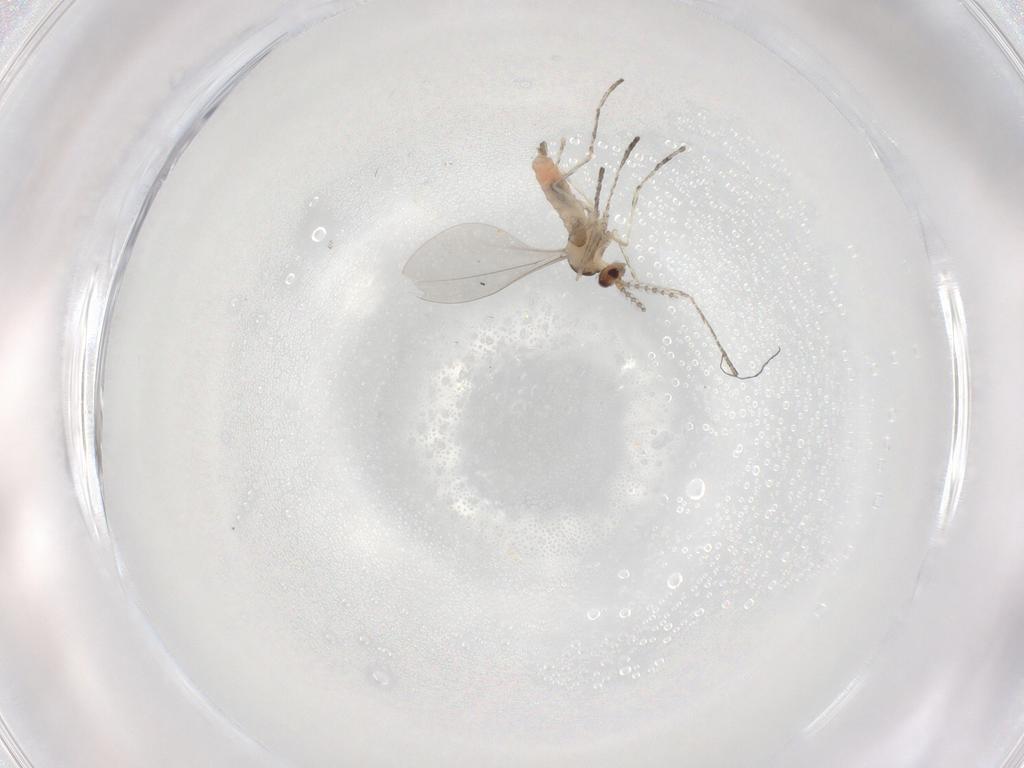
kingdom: Animalia
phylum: Arthropoda
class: Insecta
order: Diptera
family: Cecidomyiidae
